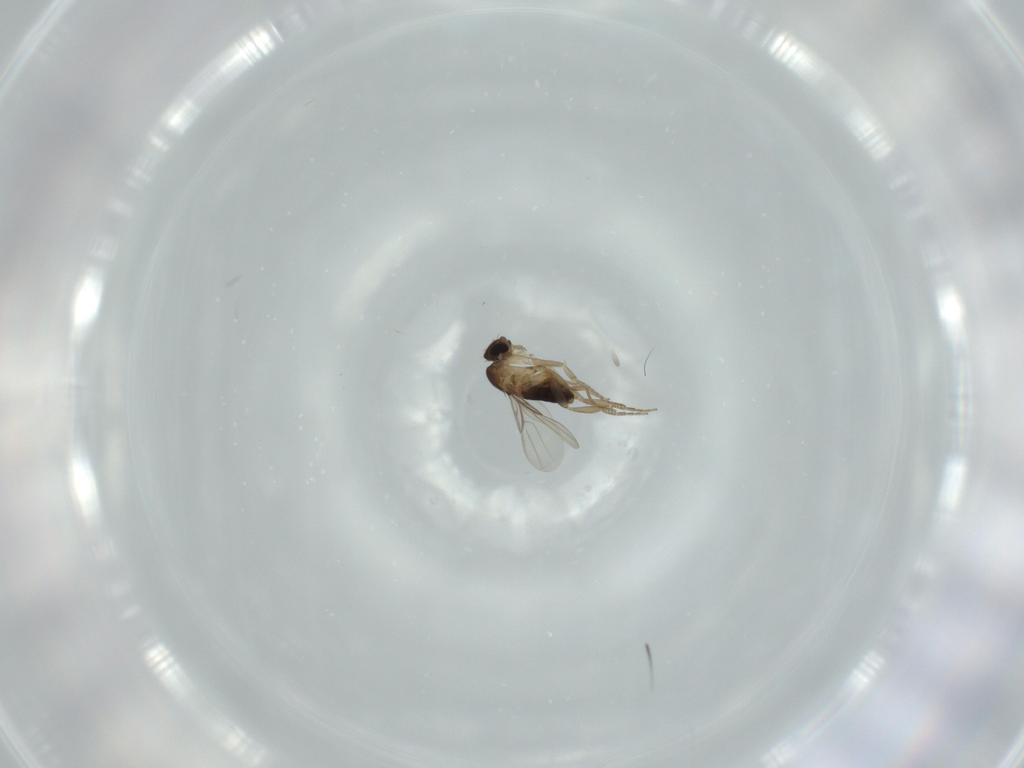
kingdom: Animalia
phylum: Arthropoda
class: Insecta
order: Diptera
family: Phoridae
